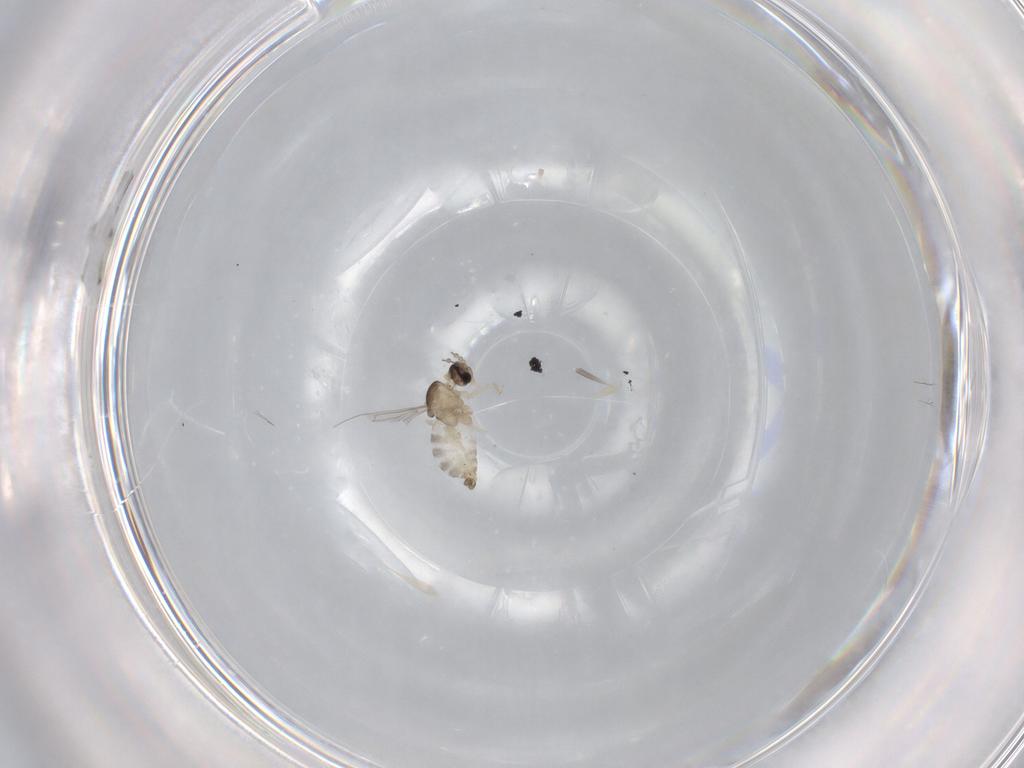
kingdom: Animalia
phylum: Arthropoda
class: Insecta
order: Diptera
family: Cecidomyiidae
